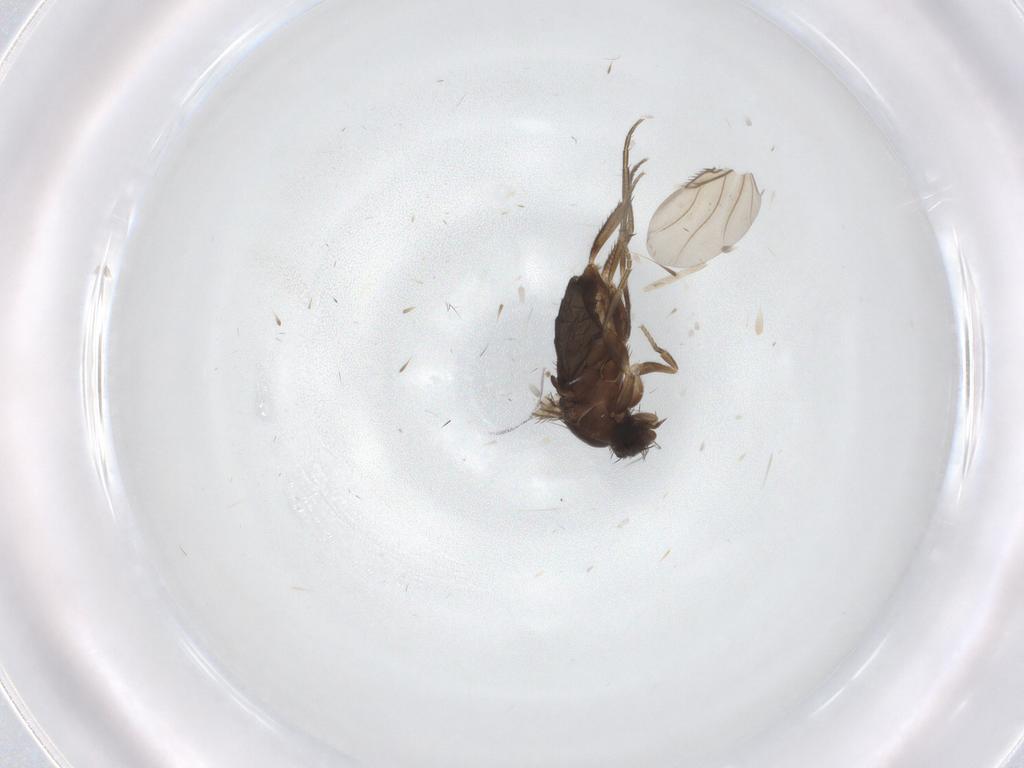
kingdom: Animalia
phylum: Arthropoda
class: Insecta
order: Diptera
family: Phoridae
